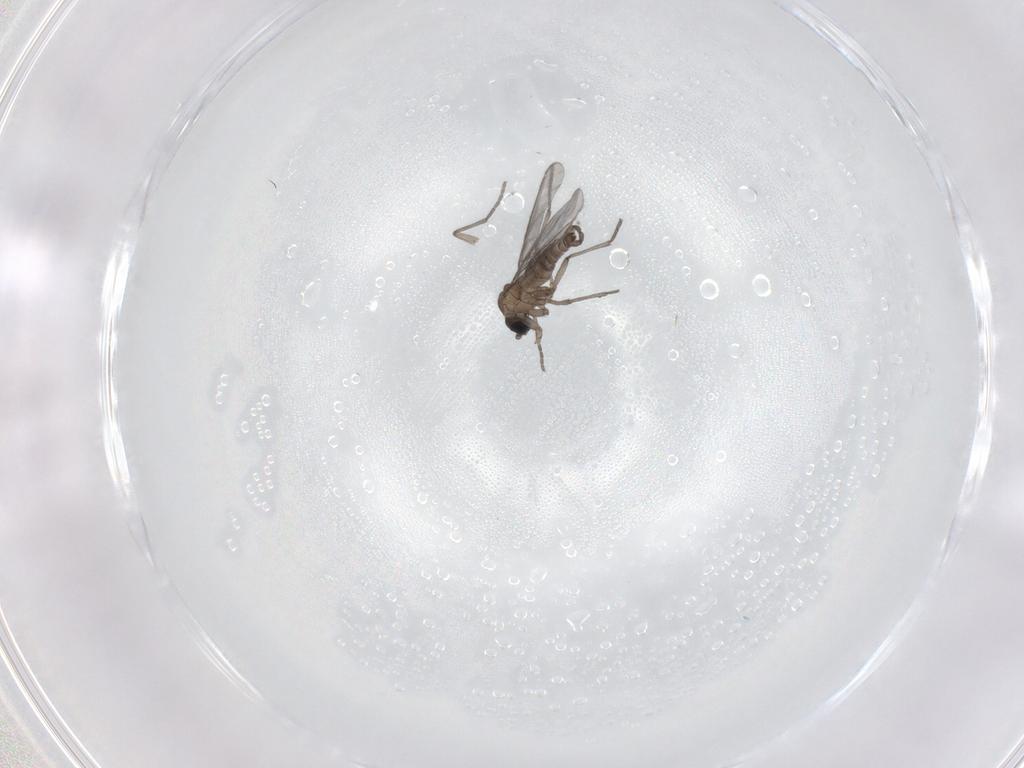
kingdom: Animalia
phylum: Arthropoda
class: Insecta
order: Diptera
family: Sciaridae
